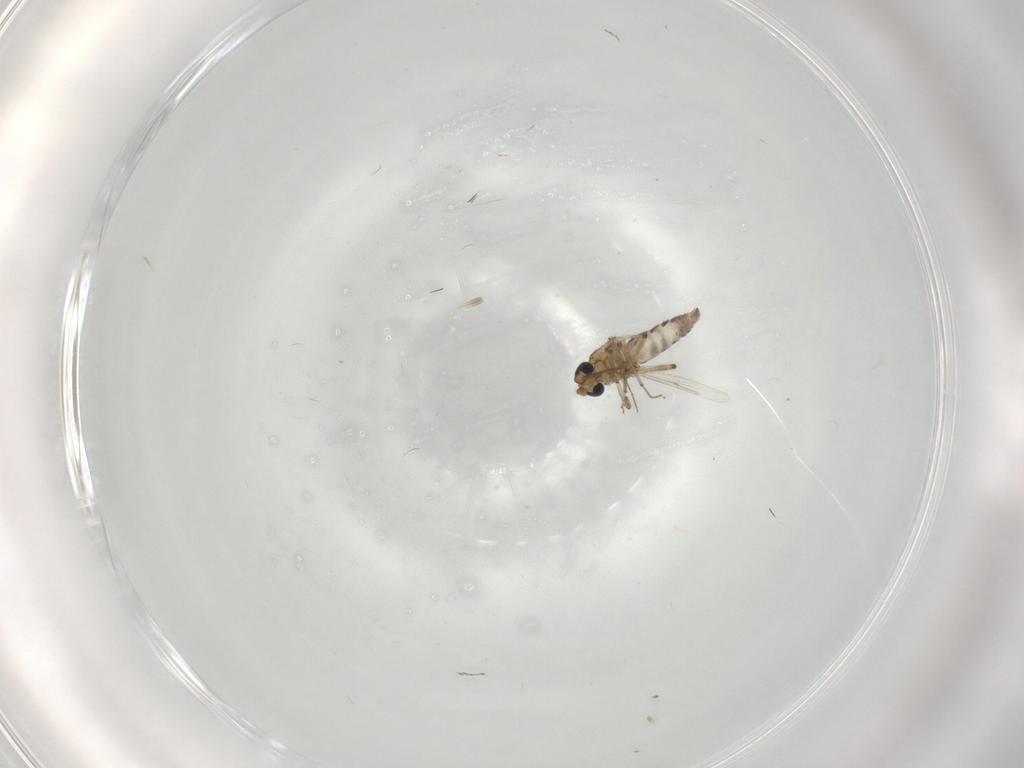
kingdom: Animalia
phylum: Arthropoda
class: Insecta
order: Diptera
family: Ceratopogonidae
